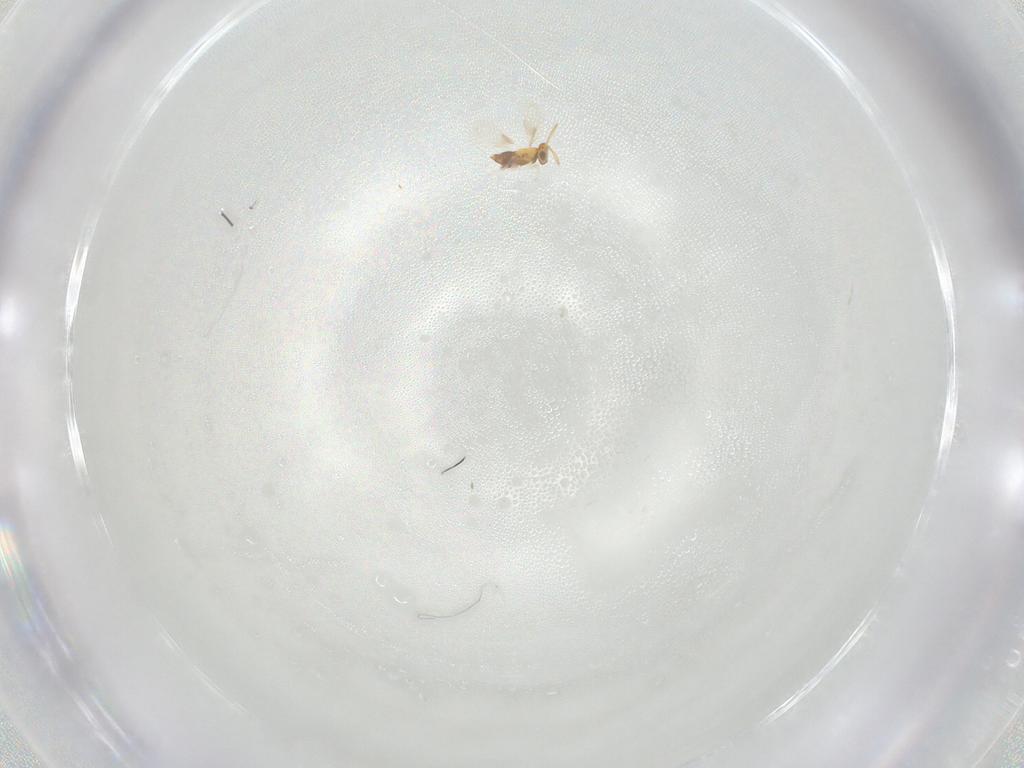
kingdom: Animalia
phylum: Arthropoda
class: Insecta
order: Hymenoptera
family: Aphelinidae
